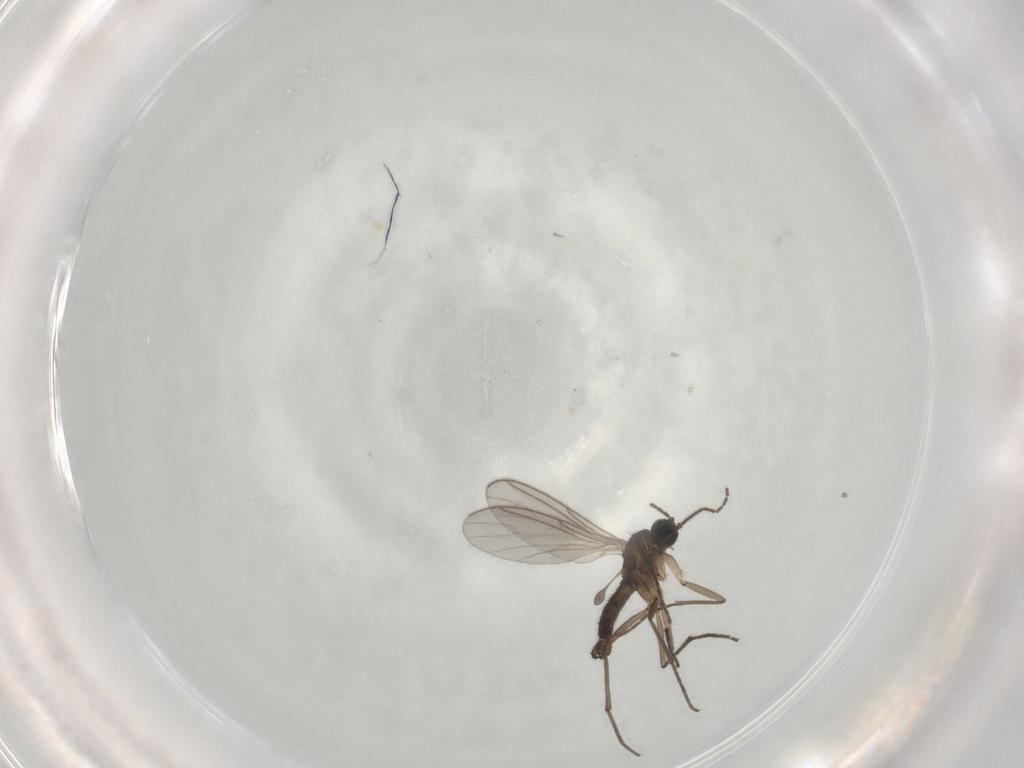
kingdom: Animalia
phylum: Arthropoda
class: Insecta
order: Diptera
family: Sciaridae
